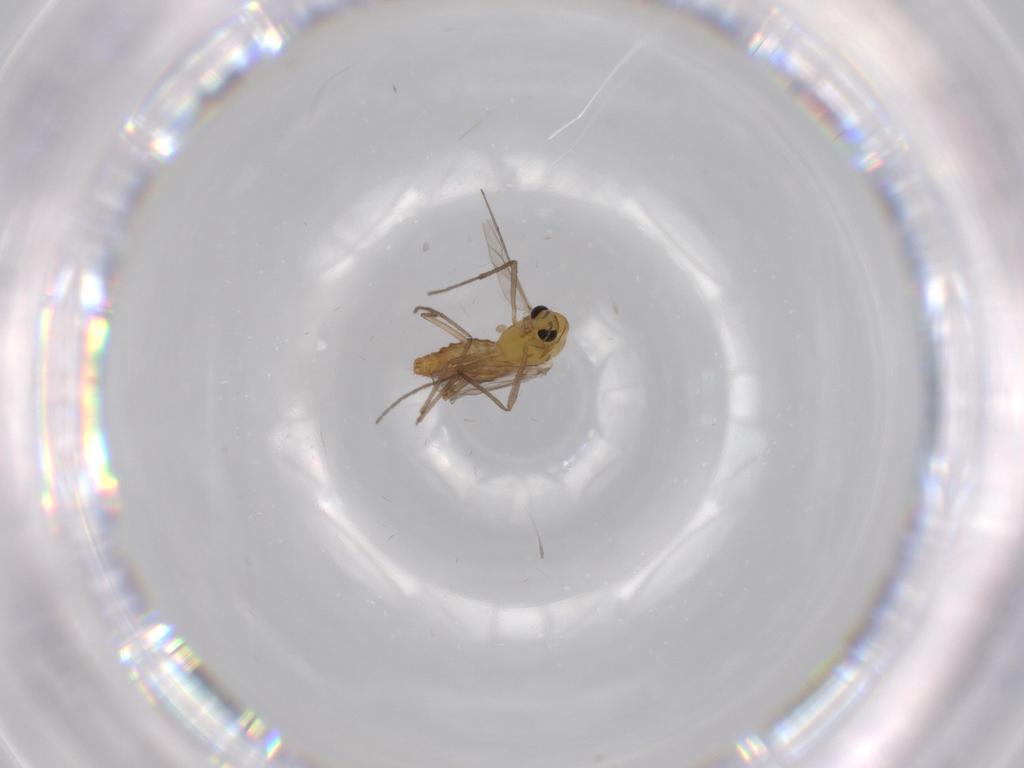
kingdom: Animalia
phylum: Arthropoda
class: Insecta
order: Diptera
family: Chironomidae
